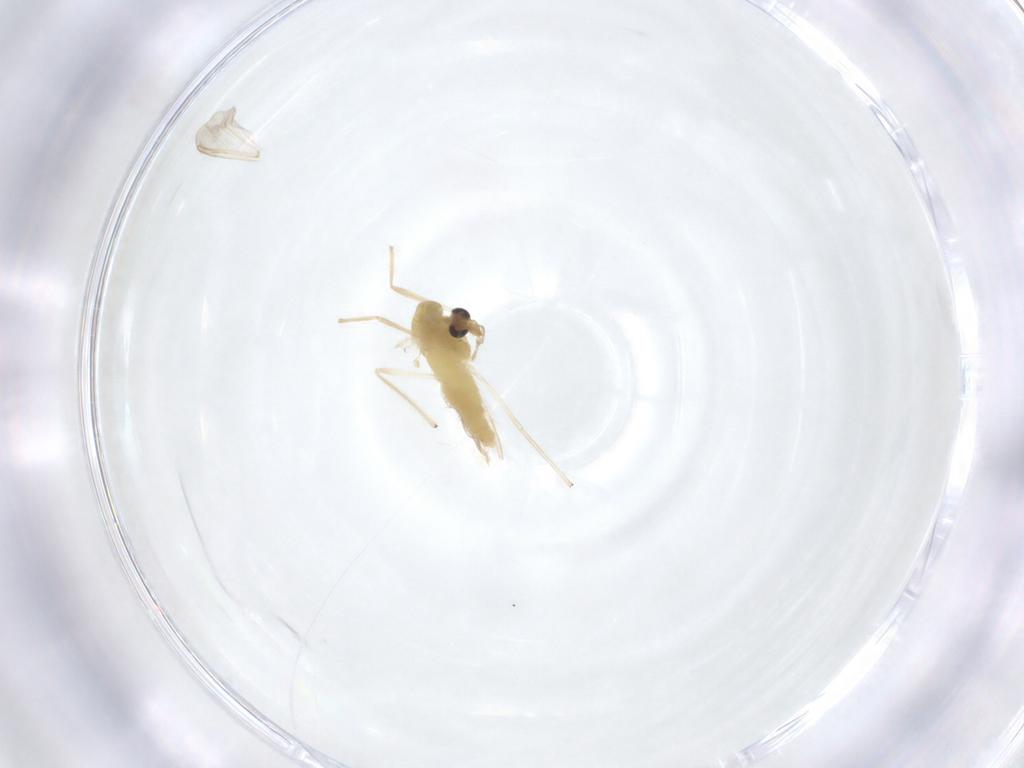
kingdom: Animalia
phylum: Arthropoda
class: Insecta
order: Diptera
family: Chironomidae
